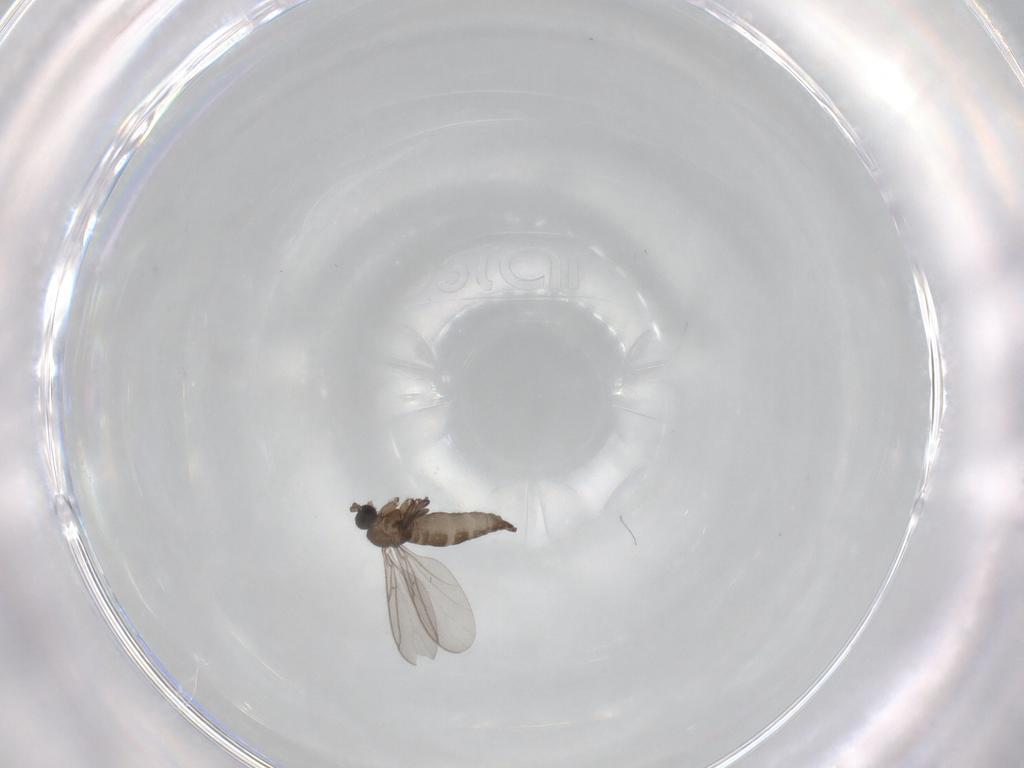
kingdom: Animalia
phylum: Arthropoda
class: Insecta
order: Diptera
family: Sciaridae
